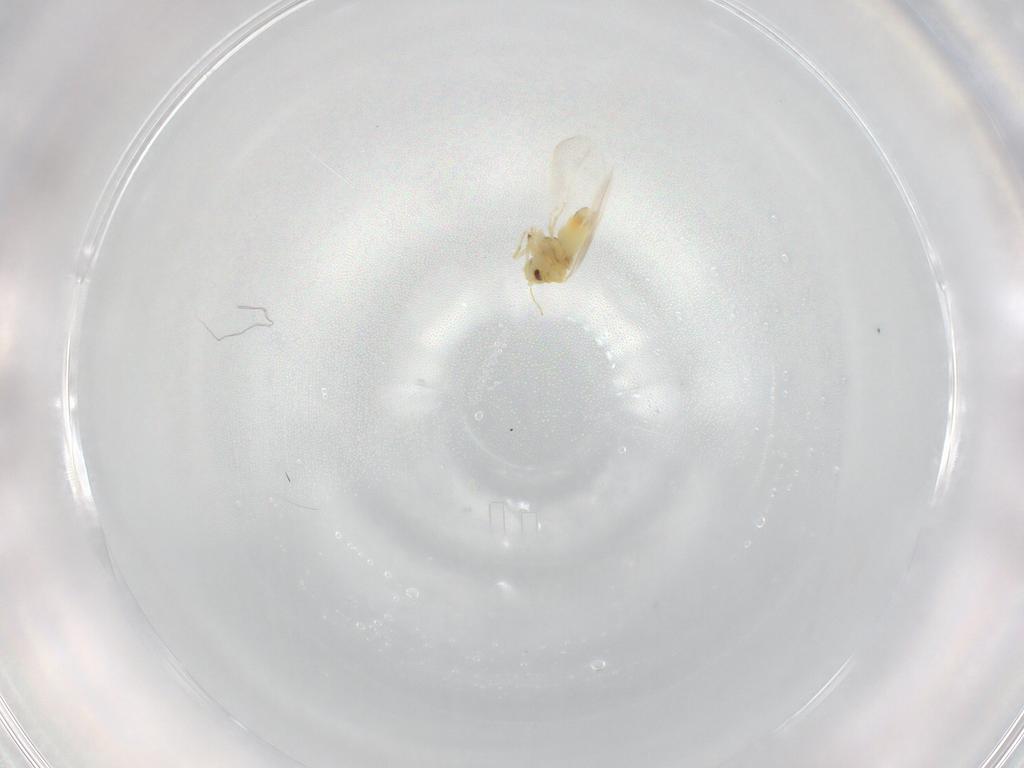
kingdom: Animalia
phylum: Arthropoda
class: Insecta
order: Hemiptera
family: Aleyrodidae
